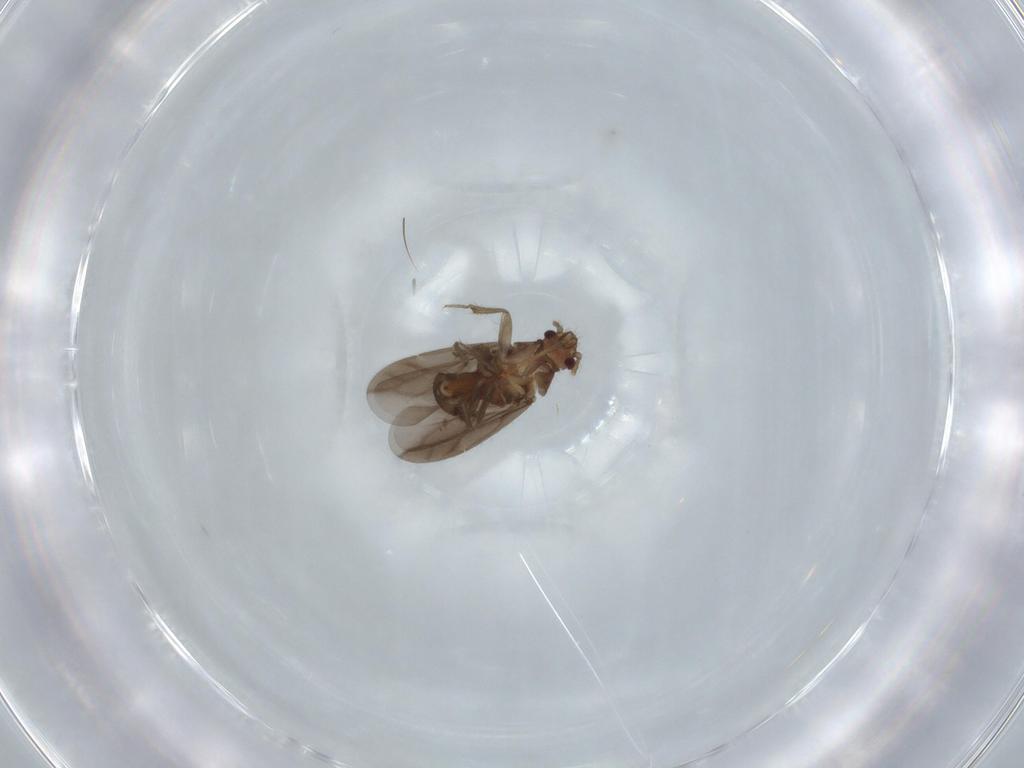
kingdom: Animalia
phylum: Arthropoda
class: Insecta
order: Hemiptera
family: Ceratocombidae
